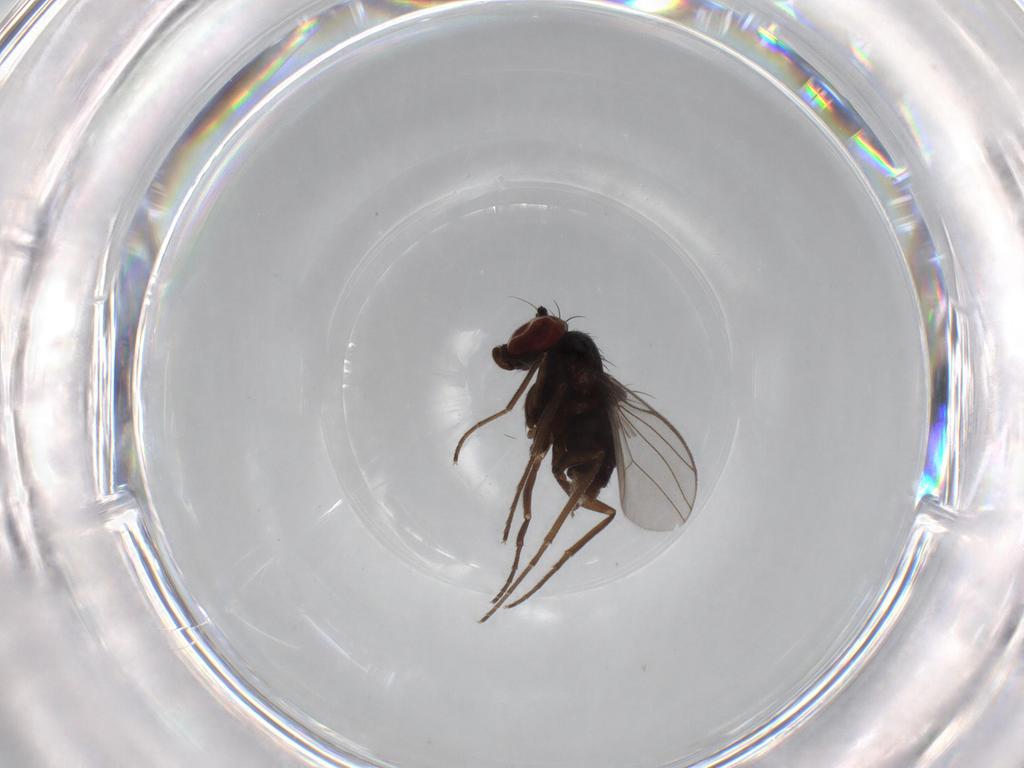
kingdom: Animalia
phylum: Arthropoda
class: Insecta
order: Diptera
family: Dolichopodidae
